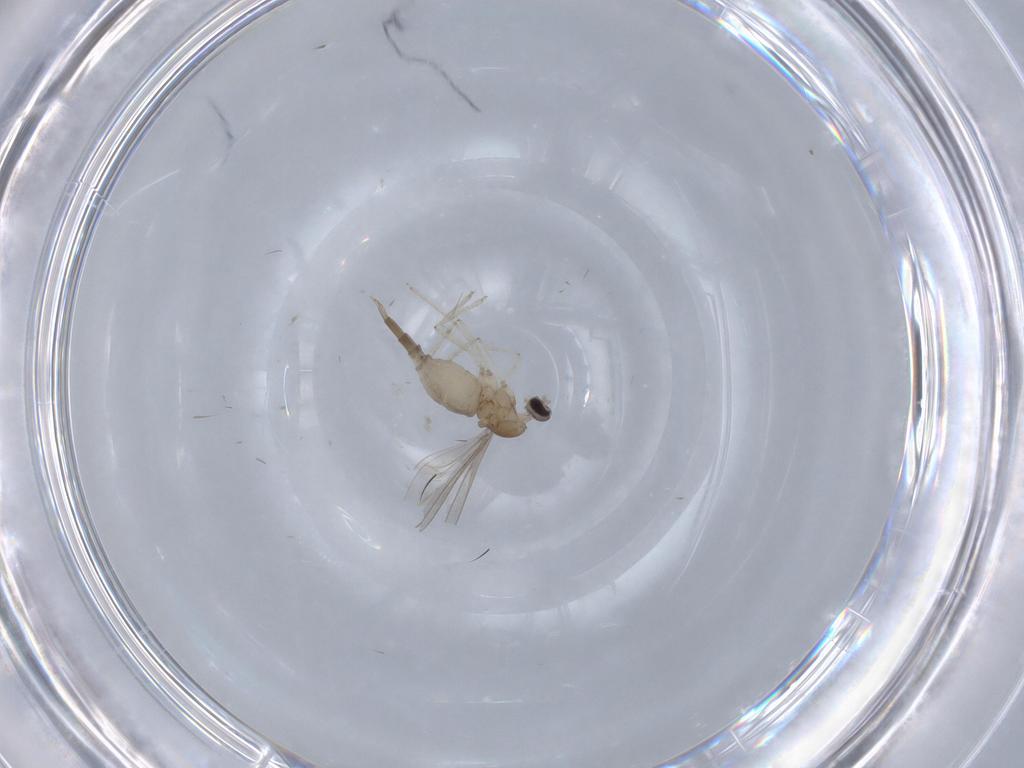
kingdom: Animalia
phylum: Arthropoda
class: Insecta
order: Diptera
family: Cecidomyiidae
